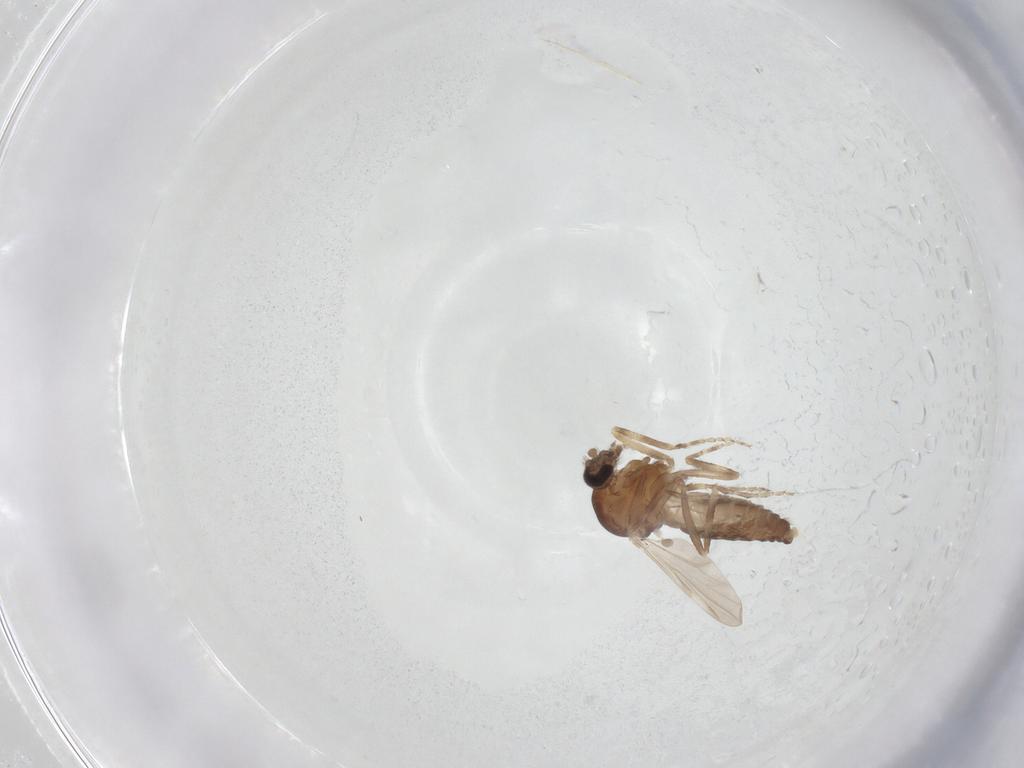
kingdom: Animalia
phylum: Arthropoda
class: Insecta
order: Diptera
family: Ceratopogonidae
